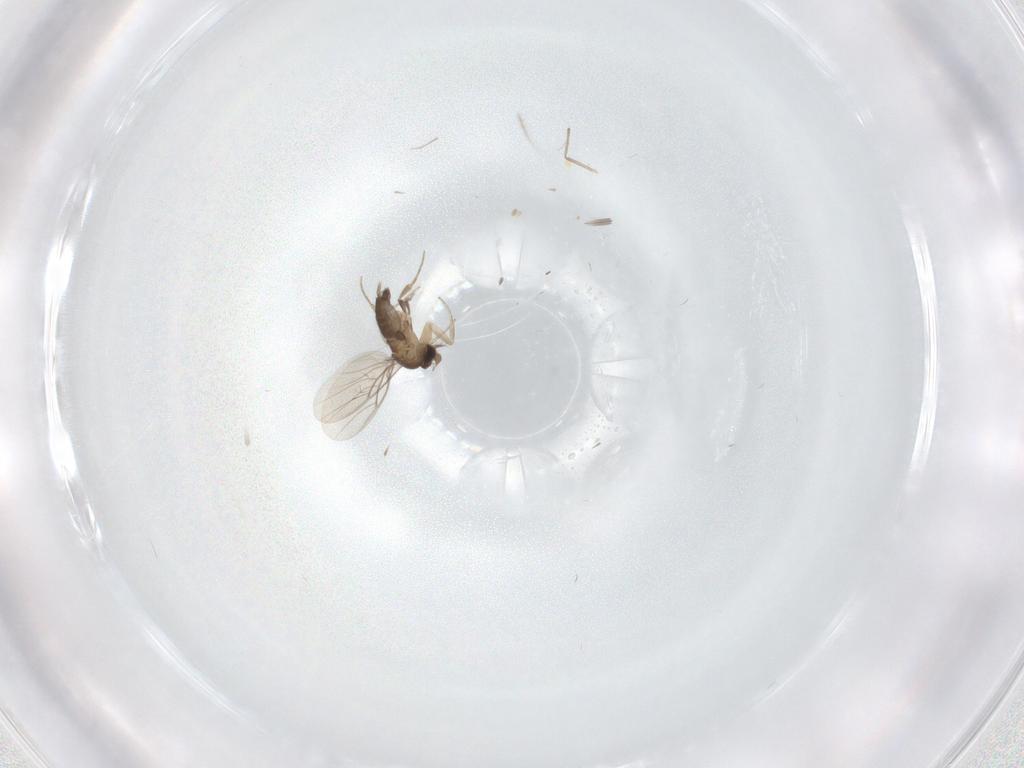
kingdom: Animalia
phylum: Arthropoda
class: Insecta
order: Diptera
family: Phoridae
